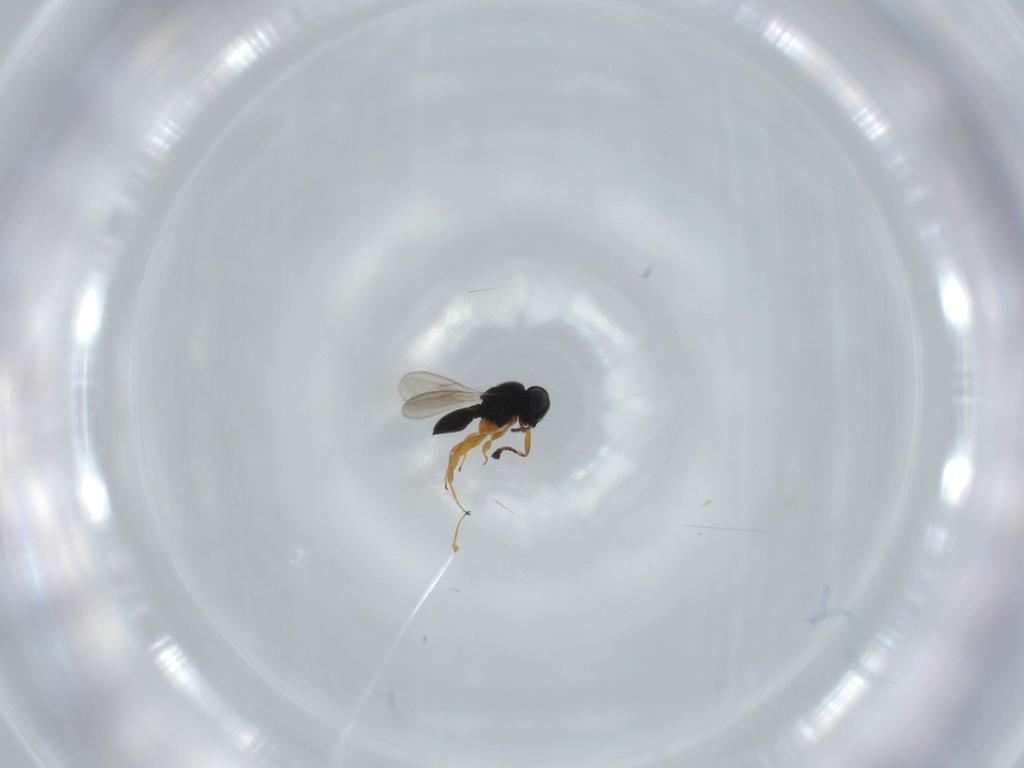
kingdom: Animalia
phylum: Arthropoda
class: Insecta
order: Hymenoptera
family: Scelionidae
